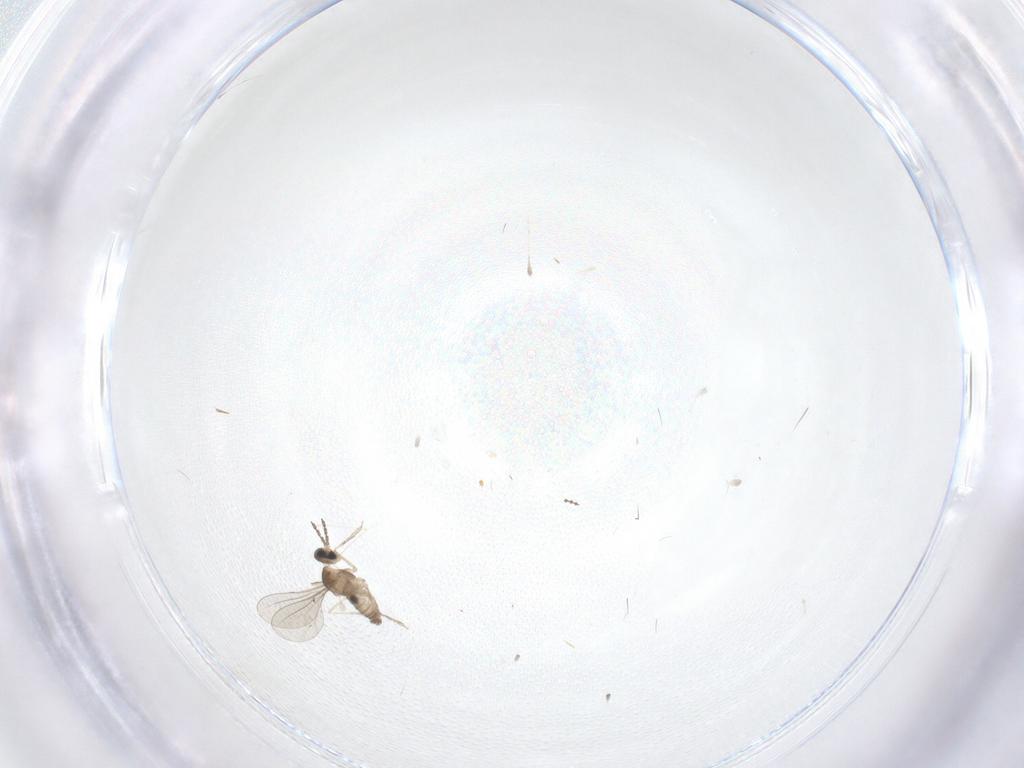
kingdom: Animalia
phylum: Arthropoda
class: Insecta
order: Diptera
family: Cecidomyiidae
